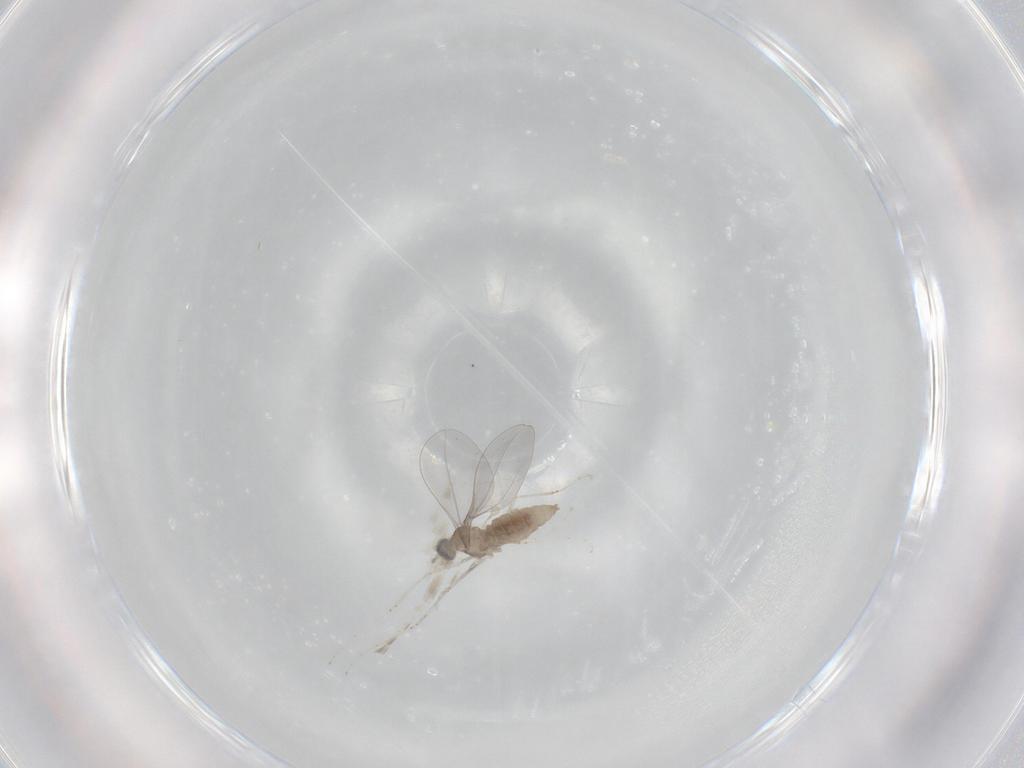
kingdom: Animalia
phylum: Arthropoda
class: Insecta
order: Diptera
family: Cecidomyiidae
